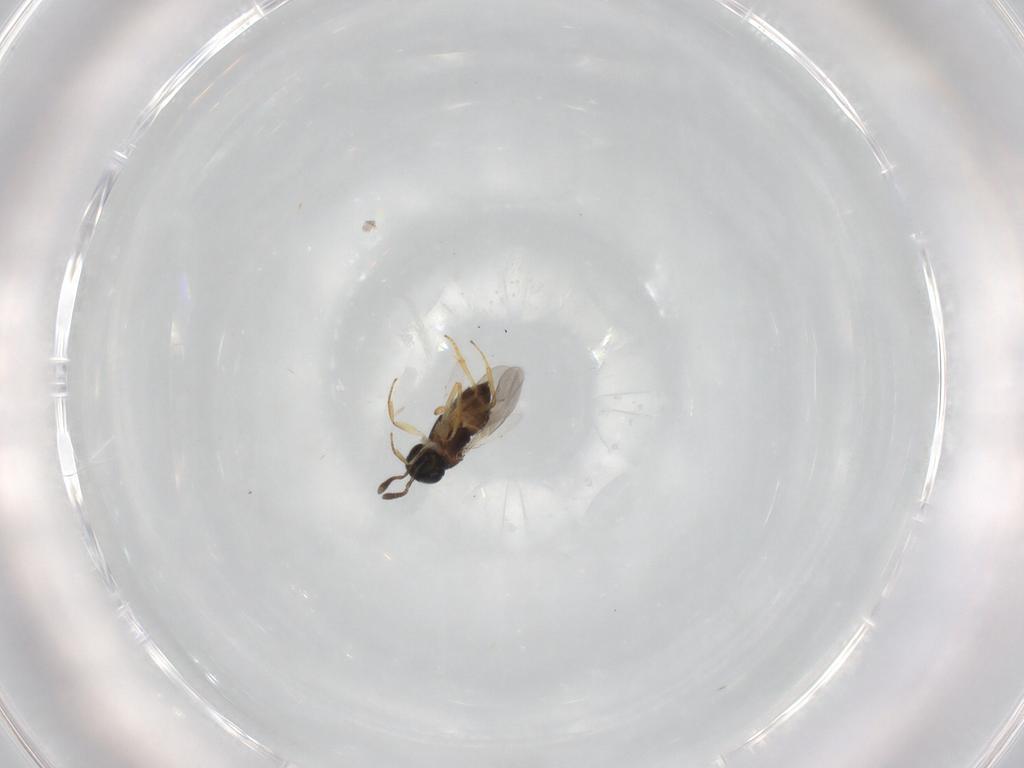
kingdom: Animalia
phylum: Arthropoda
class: Insecta
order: Hymenoptera
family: Trichogrammatidae
